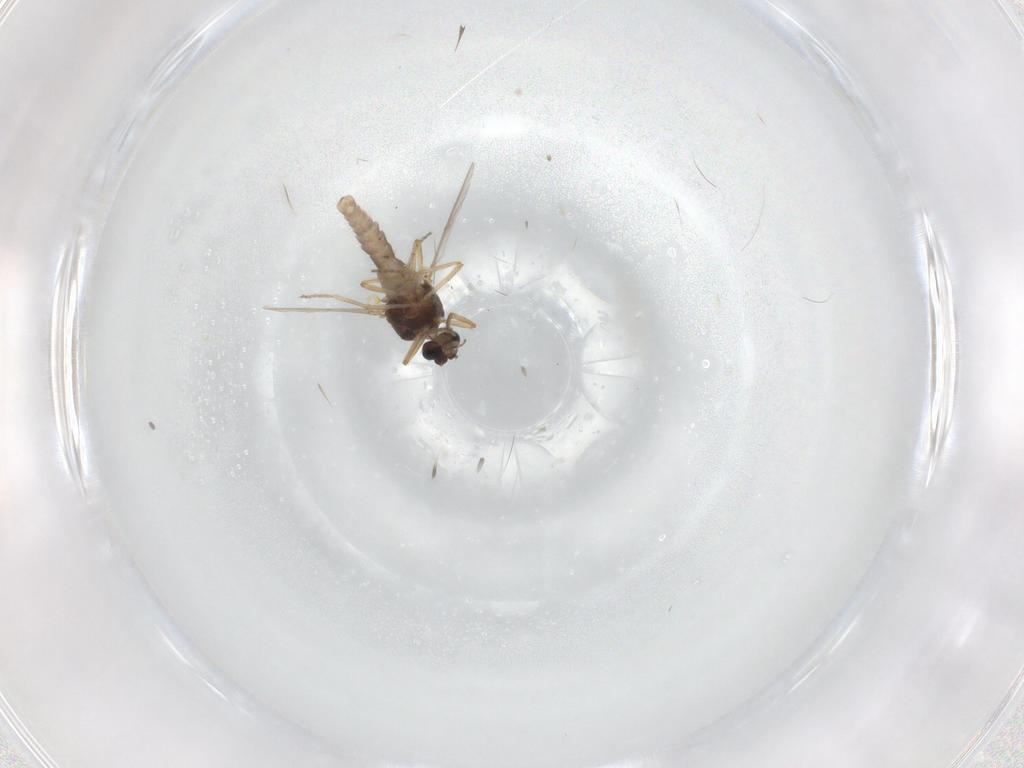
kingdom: Animalia
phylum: Arthropoda
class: Insecta
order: Diptera
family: Ceratopogonidae
